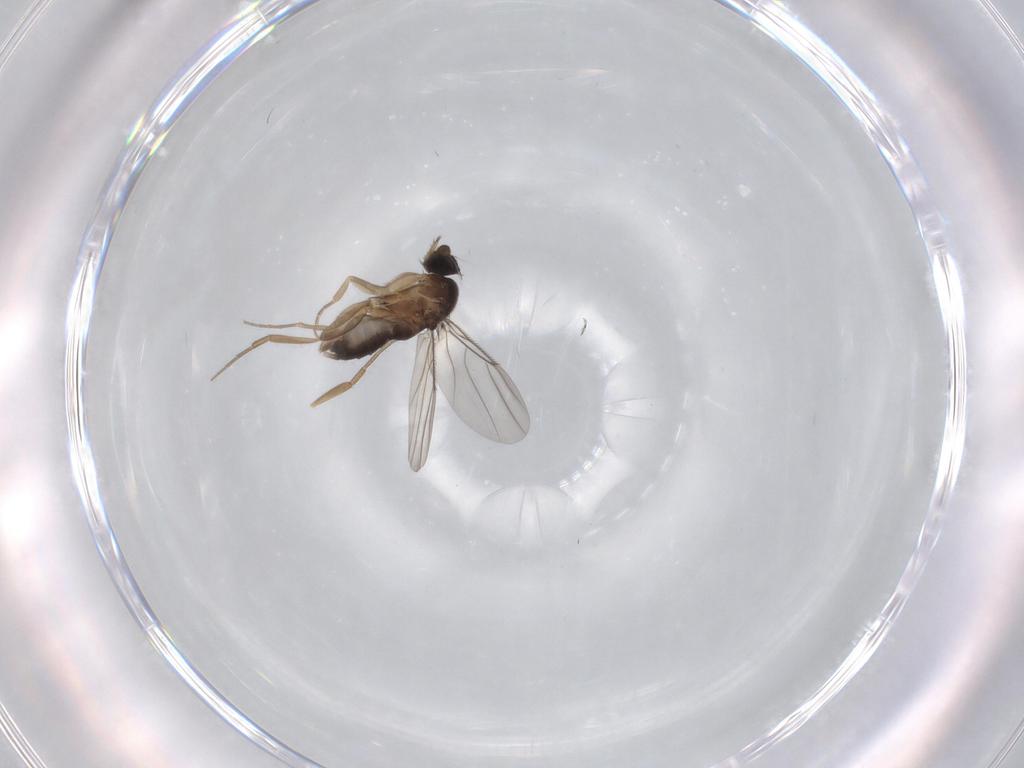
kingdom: Animalia
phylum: Arthropoda
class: Insecta
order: Diptera
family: Phoridae
